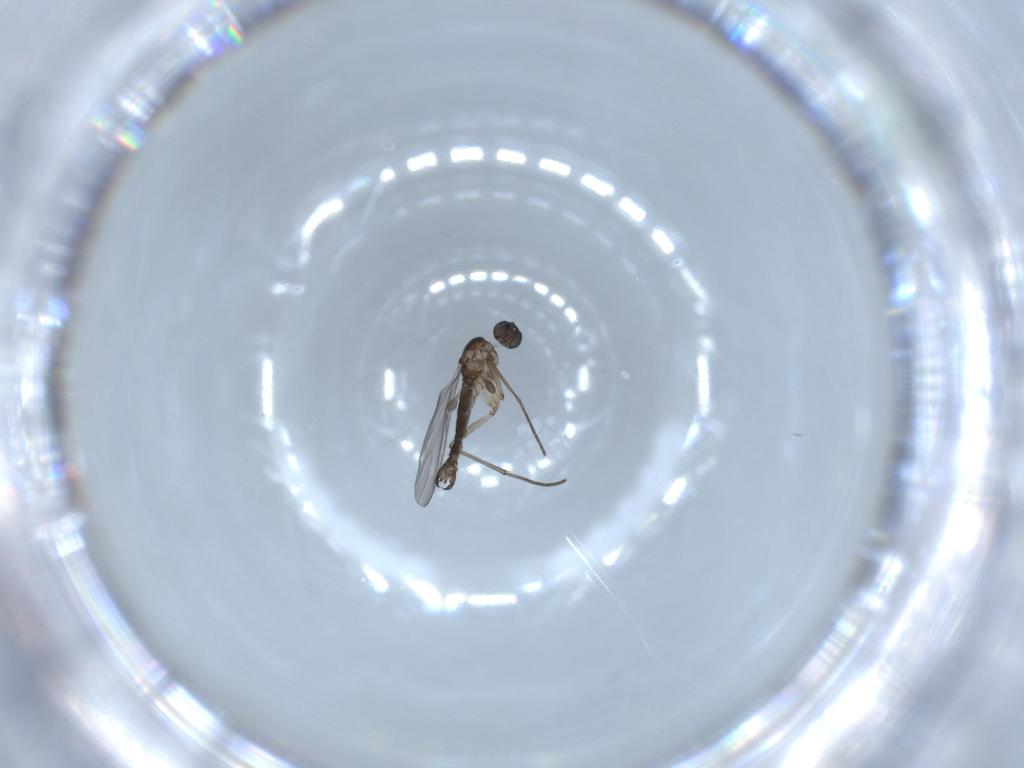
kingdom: Animalia
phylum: Arthropoda
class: Insecta
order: Diptera
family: Sciaridae
